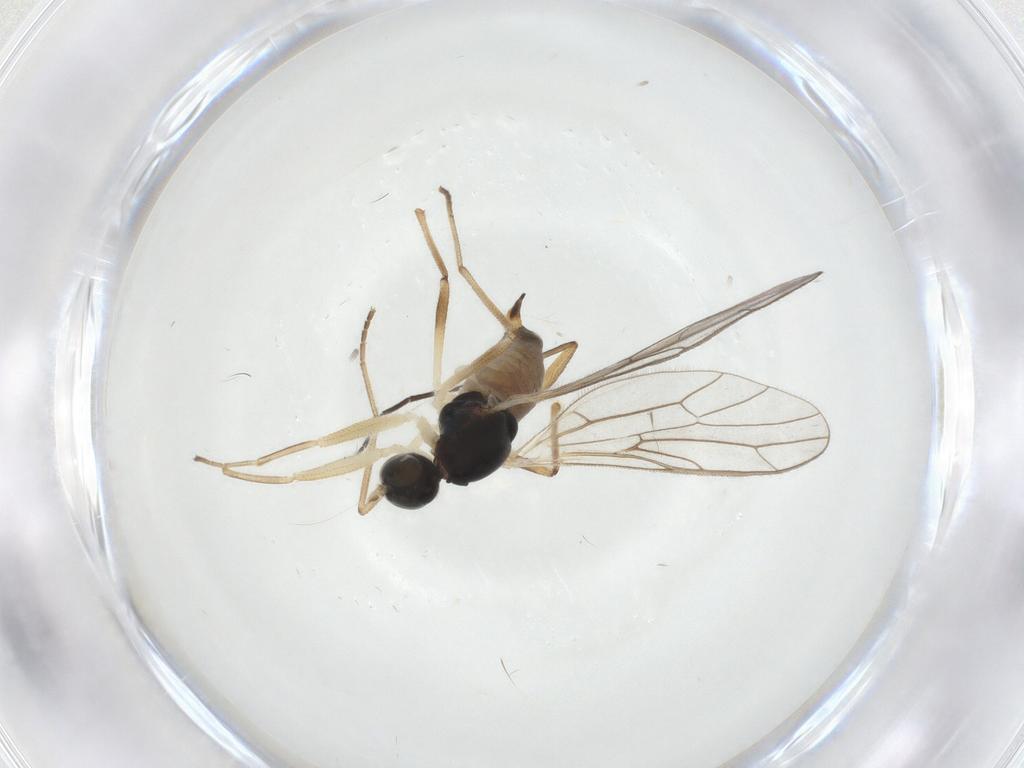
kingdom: Animalia
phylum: Arthropoda
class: Insecta
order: Diptera
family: Empididae
